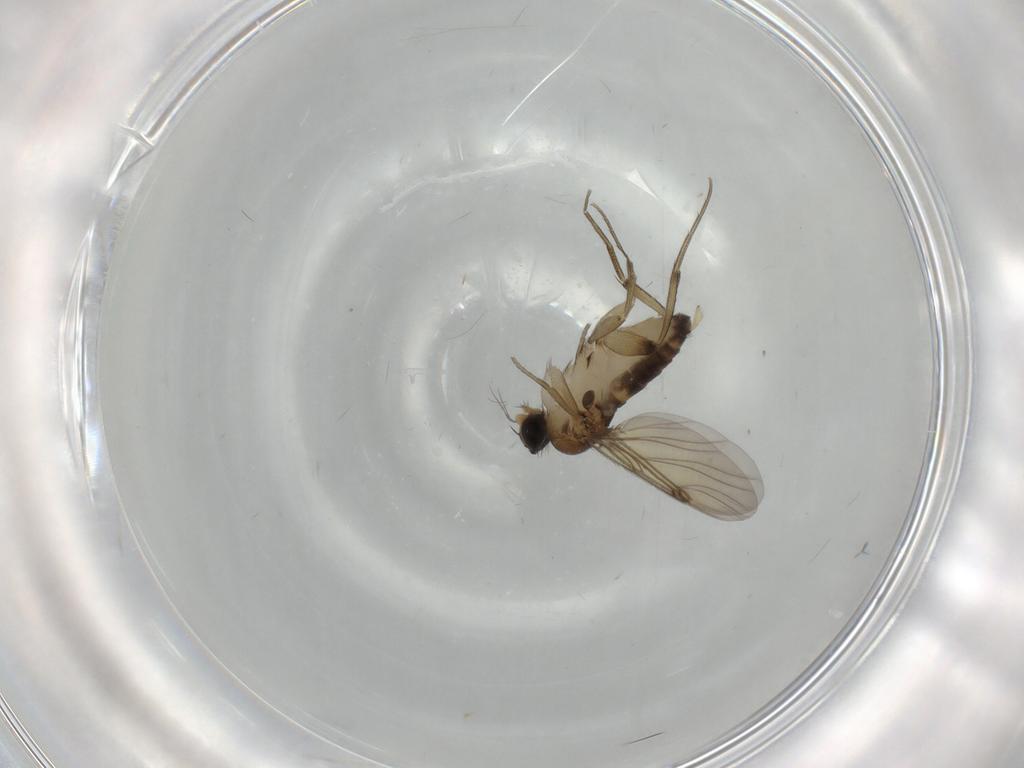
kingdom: Animalia
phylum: Arthropoda
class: Insecta
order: Diptera
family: Phoridae
